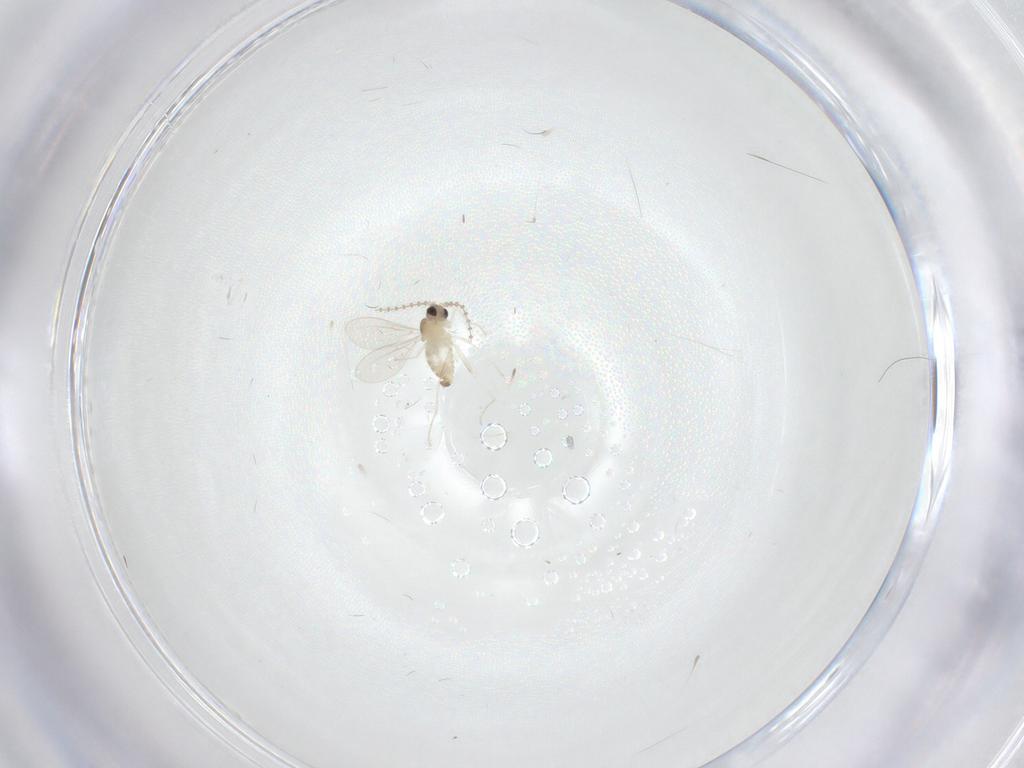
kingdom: Animalia
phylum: Arthropoda
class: Insecta
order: Diptera
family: Cecidomyiidae
